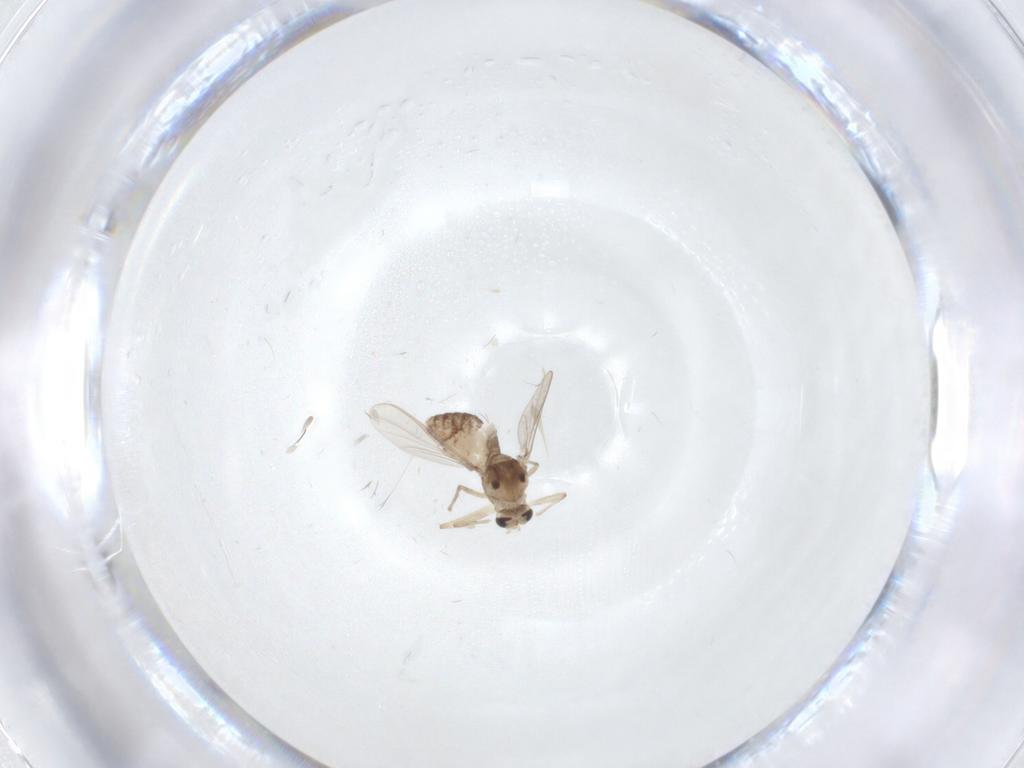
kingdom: Animalia
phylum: Arthropoda
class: Insecta
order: Diptera
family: Chironomidae
